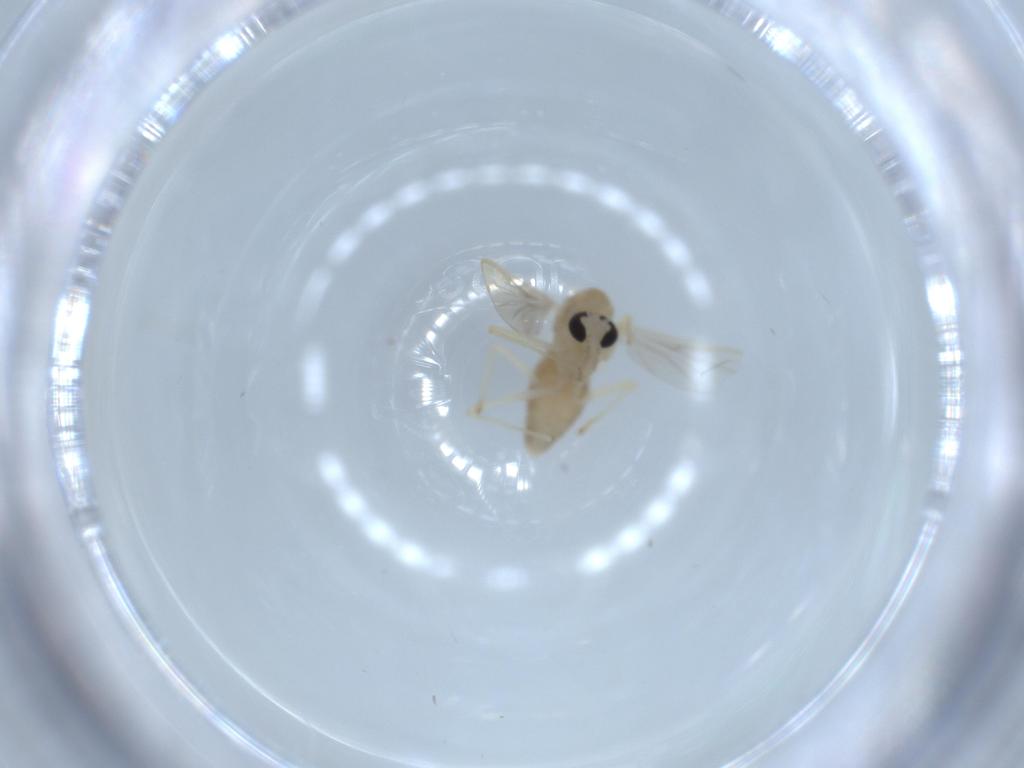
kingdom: Animalia
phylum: Arthropoda
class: Insecta
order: Diptera
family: Chironomidae
